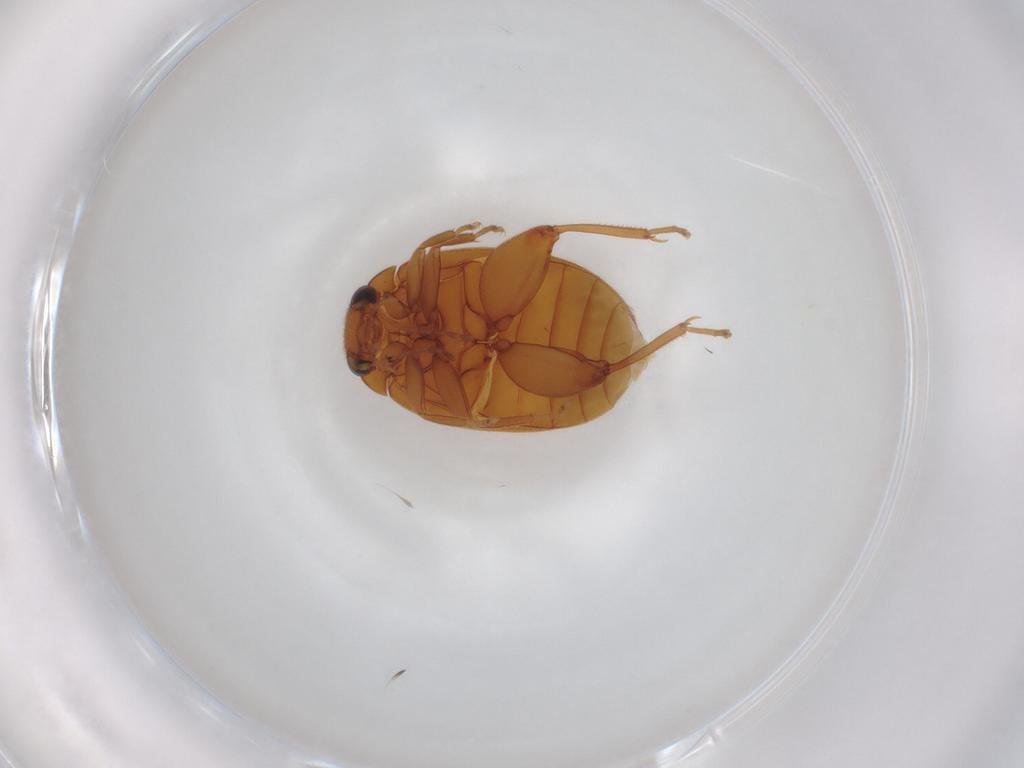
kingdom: Animalia
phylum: Arthropoda
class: Insecta
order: Coleoptera
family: Scirtidae
